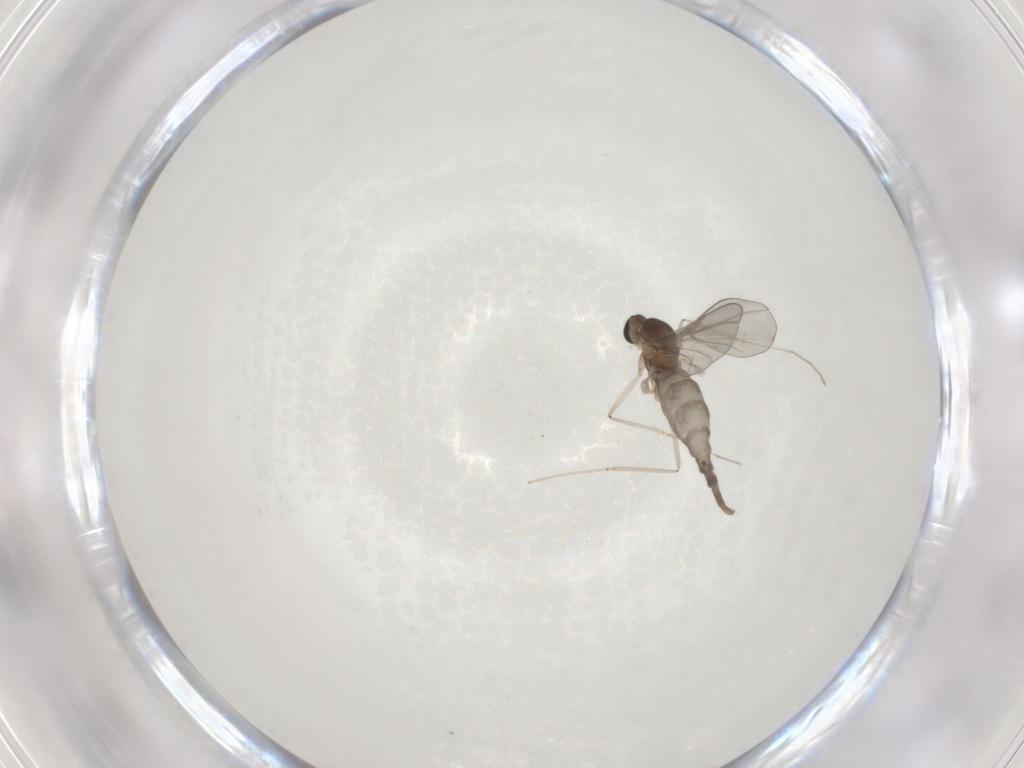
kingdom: Animalia
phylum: Arthropoda
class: Insecta
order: Diptera
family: Cecidomyiidae
